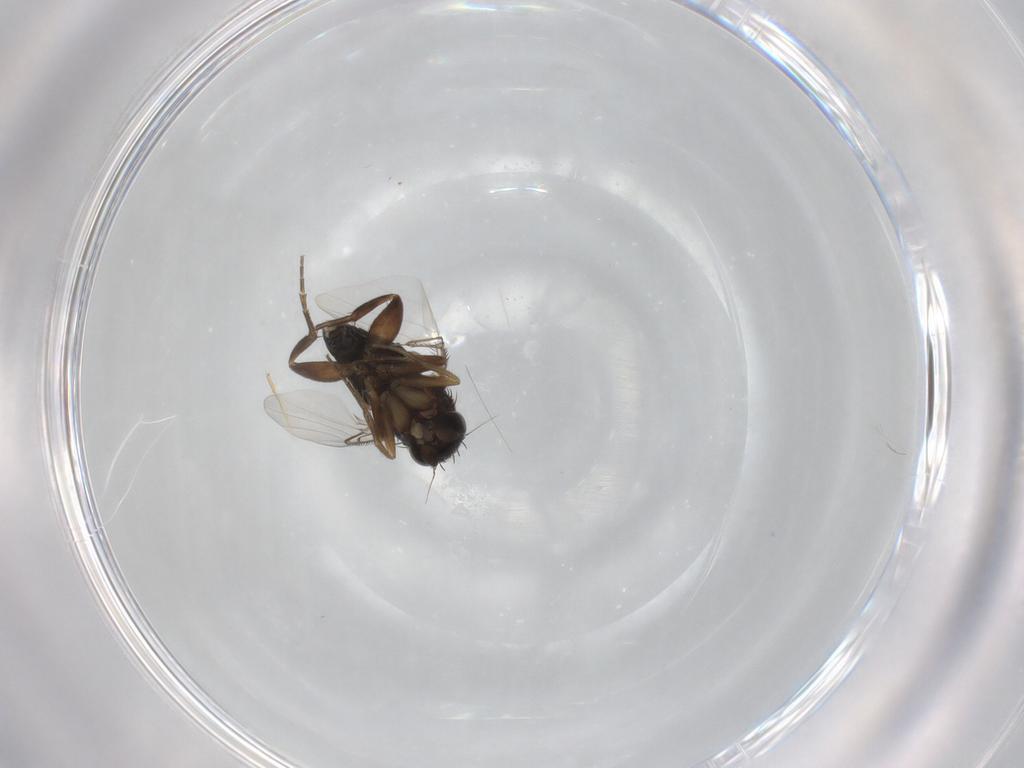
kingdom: Animalia
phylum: Arthropoda
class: Insecta
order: Diptera
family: Phoridae
